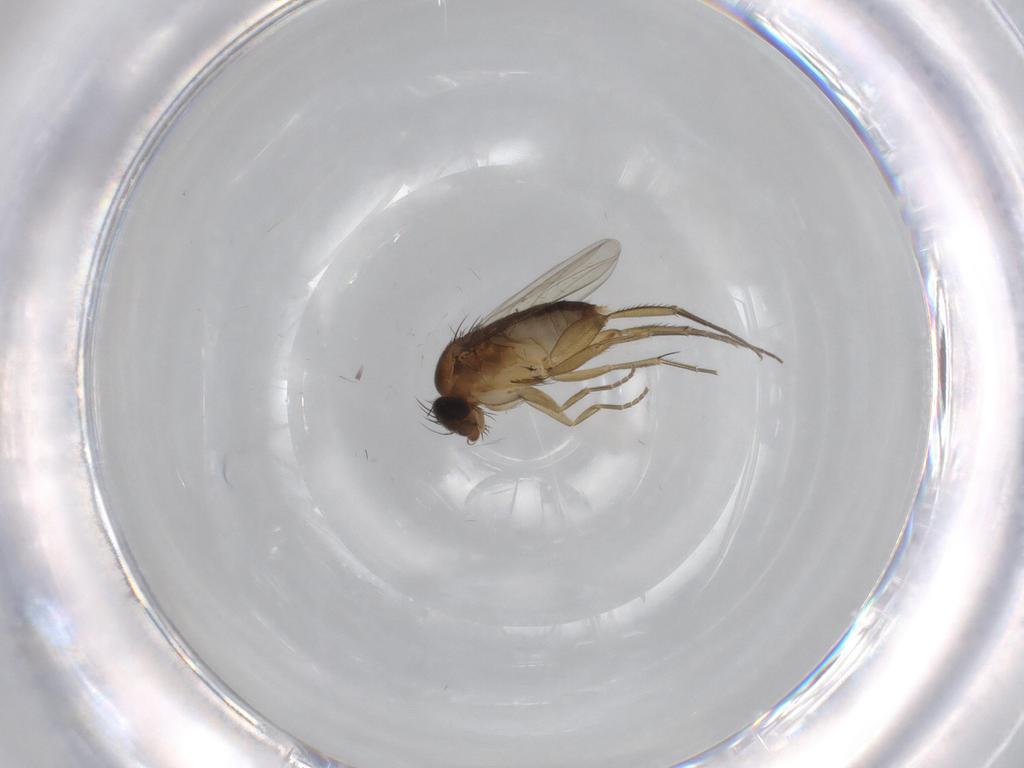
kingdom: Animalia
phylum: Arthropoda
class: Insecta
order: Diptera
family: Phoridae
